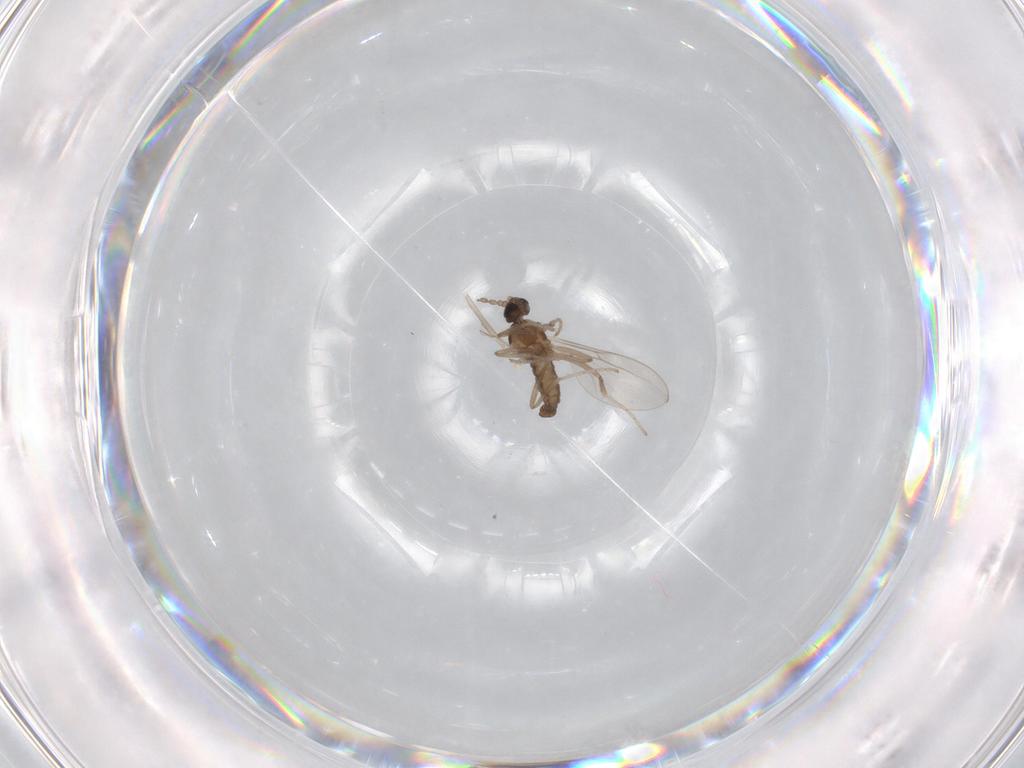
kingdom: Animalia
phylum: Arthropoda
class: Insecta
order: Diptera
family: Cecidomyiidae
